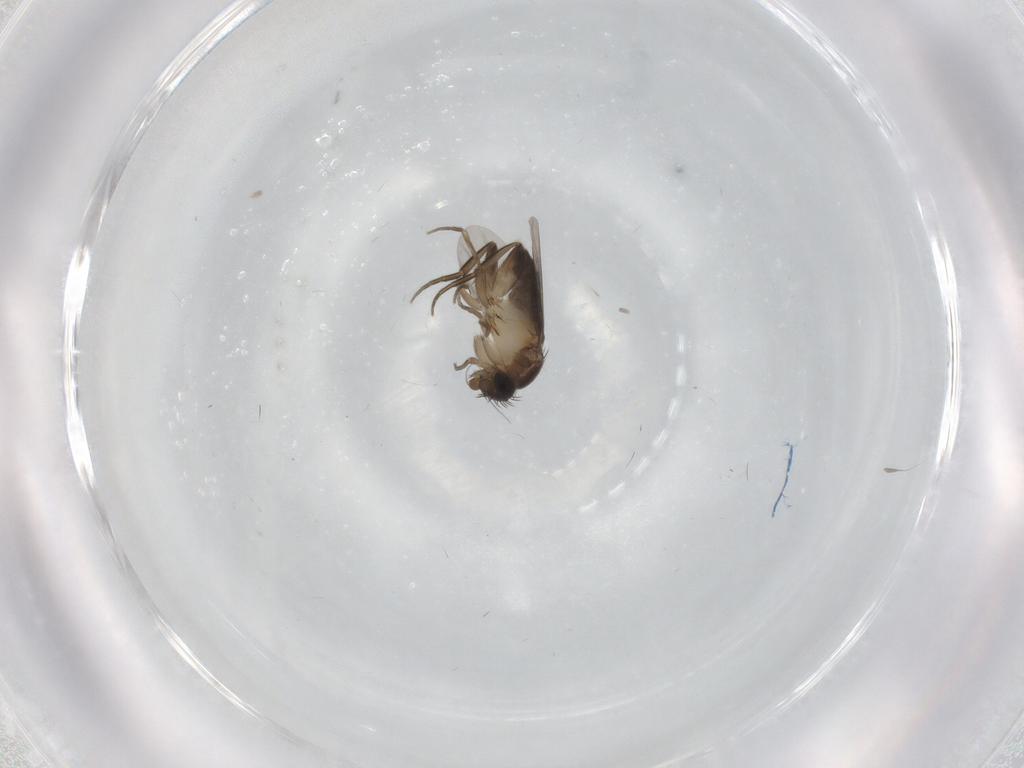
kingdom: Animalia
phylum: Arthropoda
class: Insecta
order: Diptera
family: Phoridae
